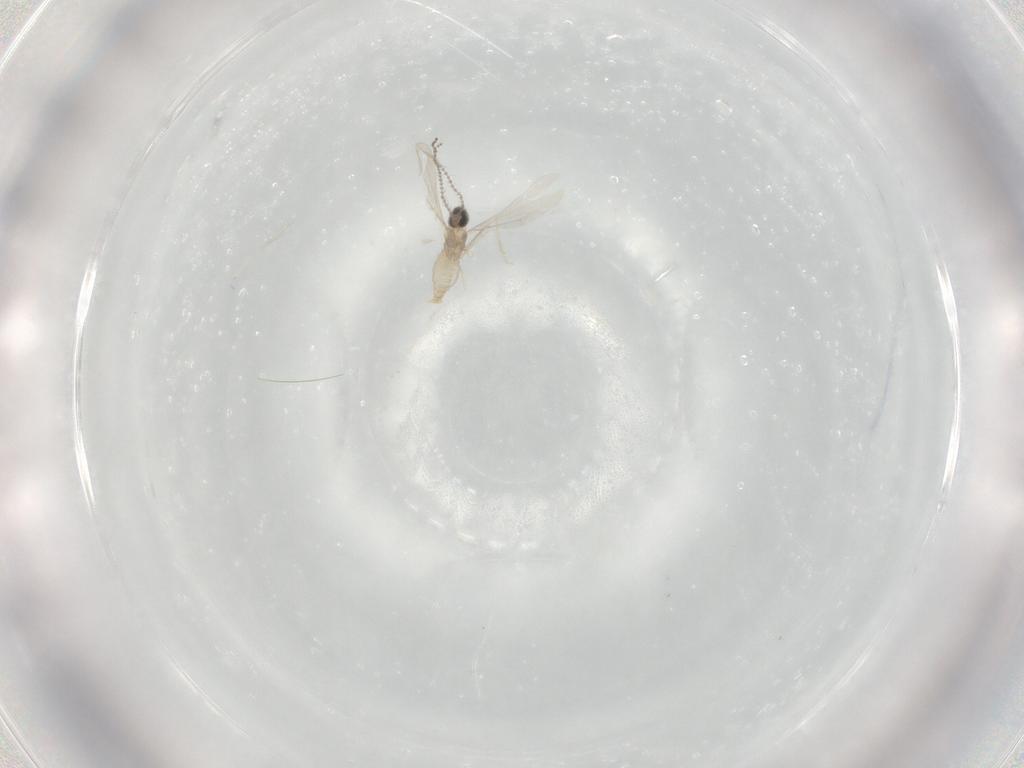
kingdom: Animalia
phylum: Arthropoda
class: Insecta
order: Diptera
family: Cecidomyiidae
